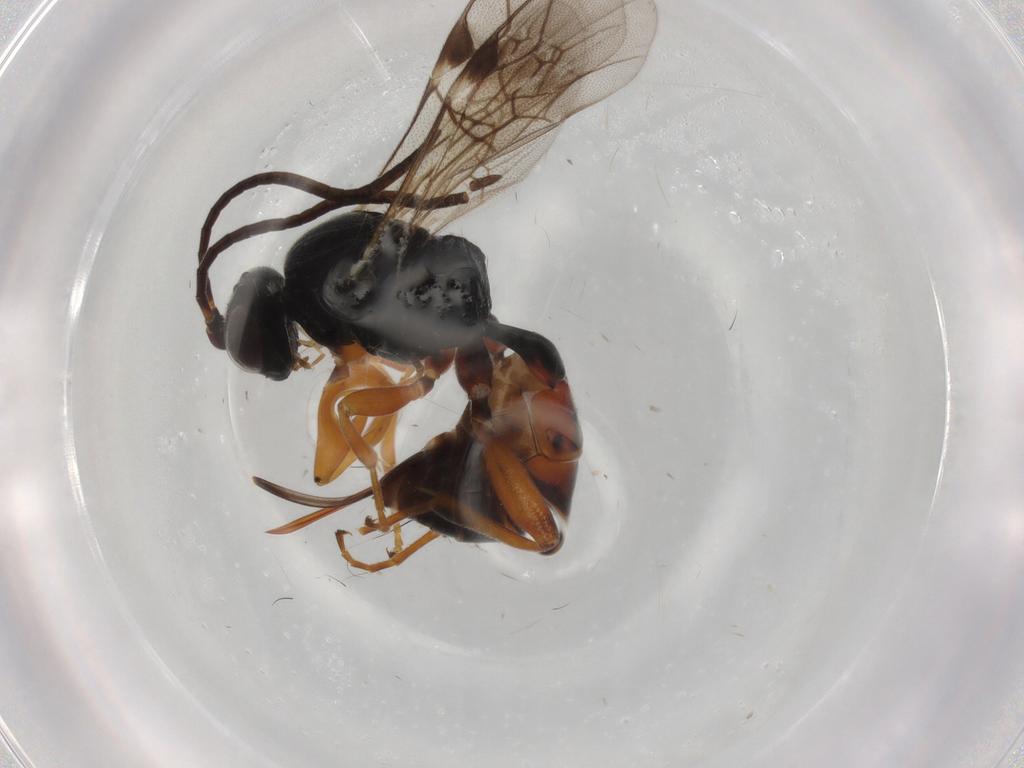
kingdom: Animalia
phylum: Arthropoda
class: Insecta
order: Hymenoptera
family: Ichneumonidae
